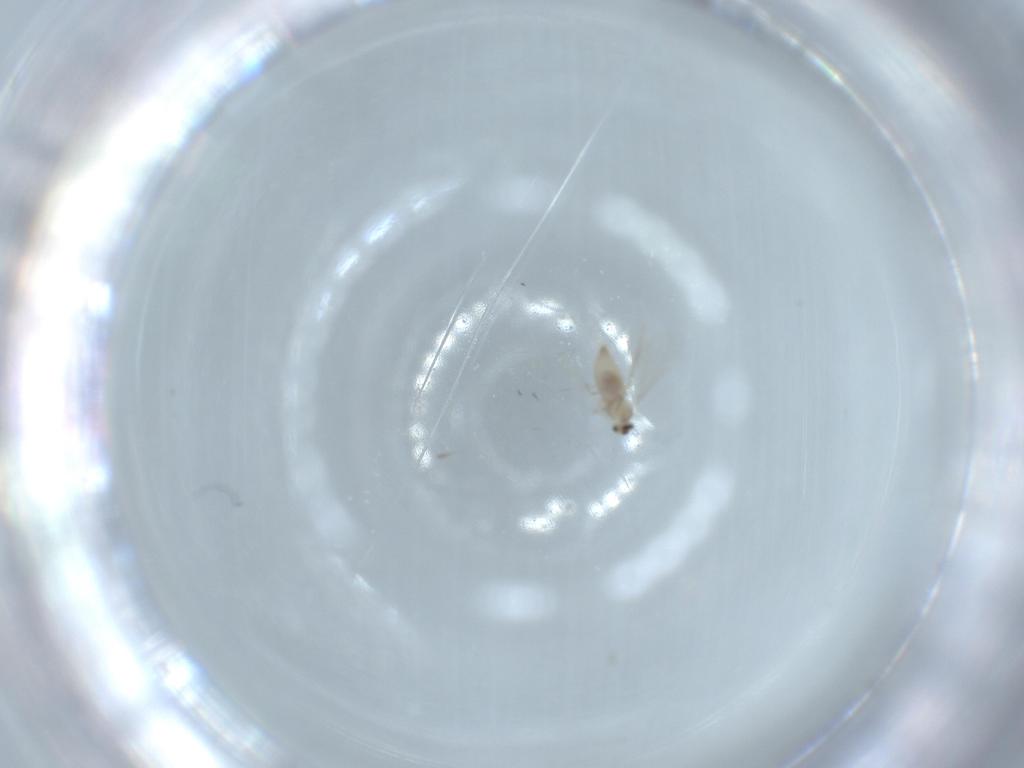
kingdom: Animalia
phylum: Arthropoda
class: Insecta
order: Diptera
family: Cecidomyiidae
